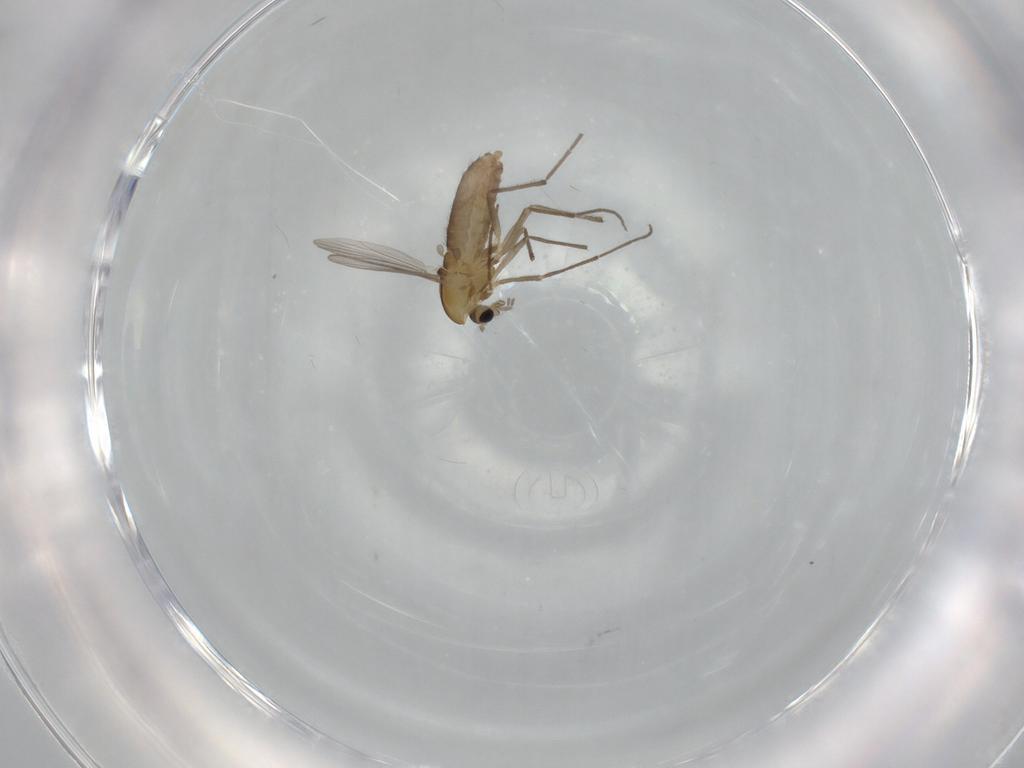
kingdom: Animalia
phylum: Arthropoda
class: Insecta
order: Diptera
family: Chironomidae
